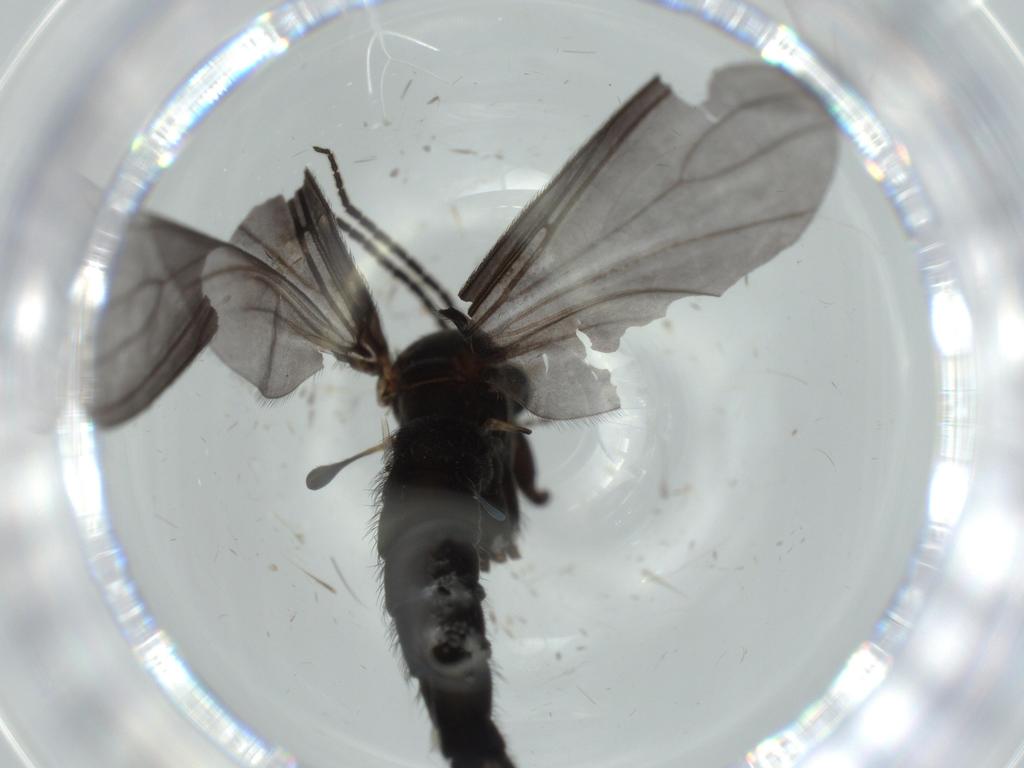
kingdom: Animalia
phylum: Arthropoda
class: Insecta
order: Diptera
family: Sciaridae
